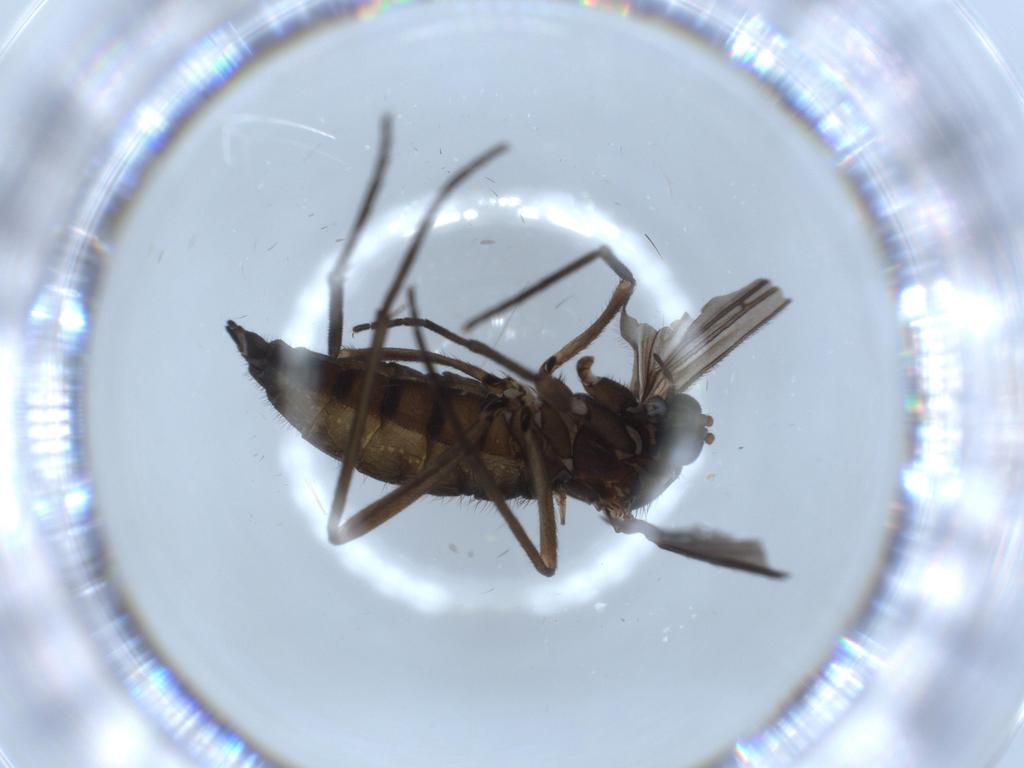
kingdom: Animalia
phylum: Arthropoda
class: Insecta
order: Diptera
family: Sciaridae
